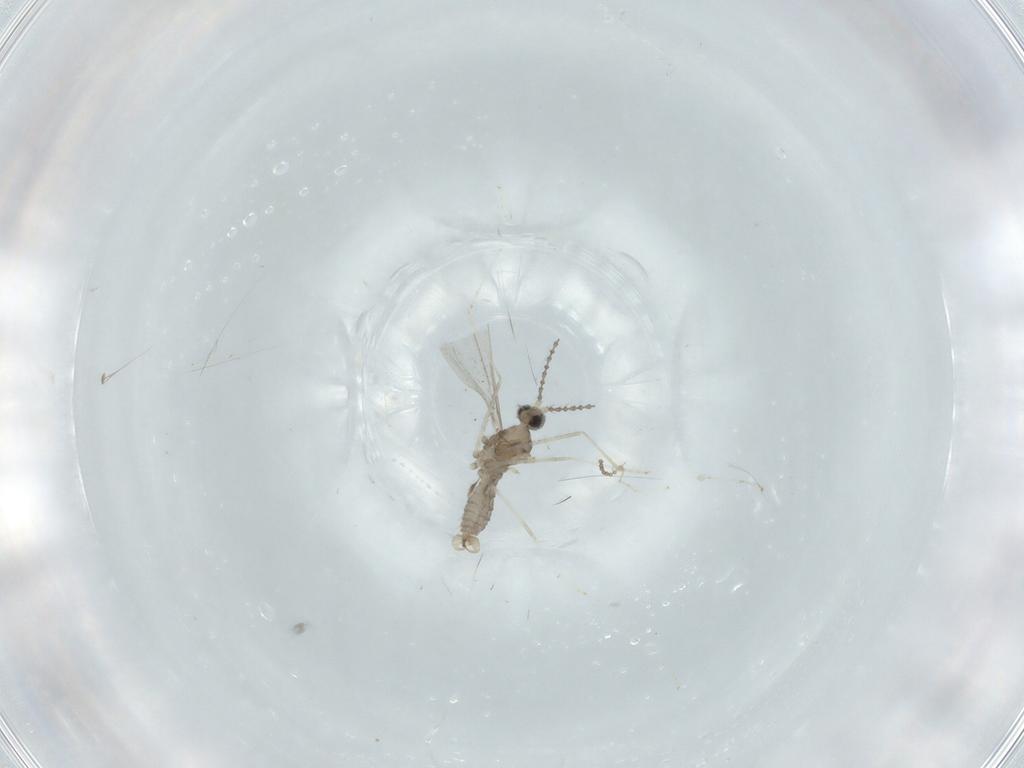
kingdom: Animalia
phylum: Arthropoda
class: Insecta
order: Diptera
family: Cecidomyiidae
